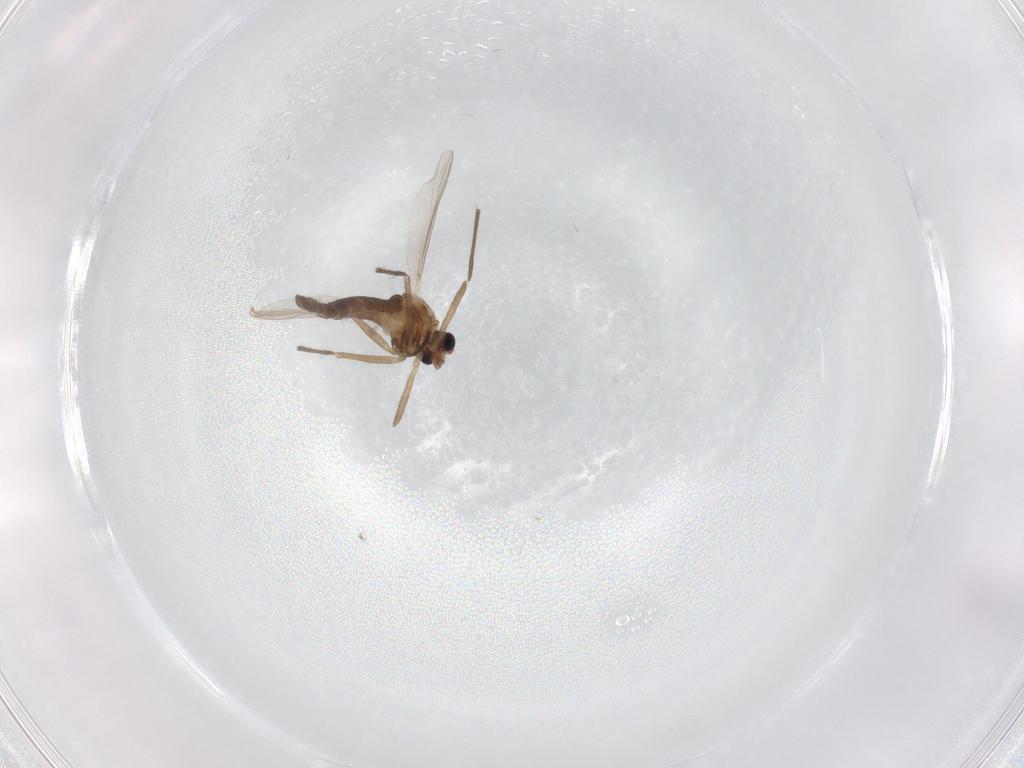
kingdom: Animalia
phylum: Arthropoda
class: Insecta
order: Diptera
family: Chironomidae
